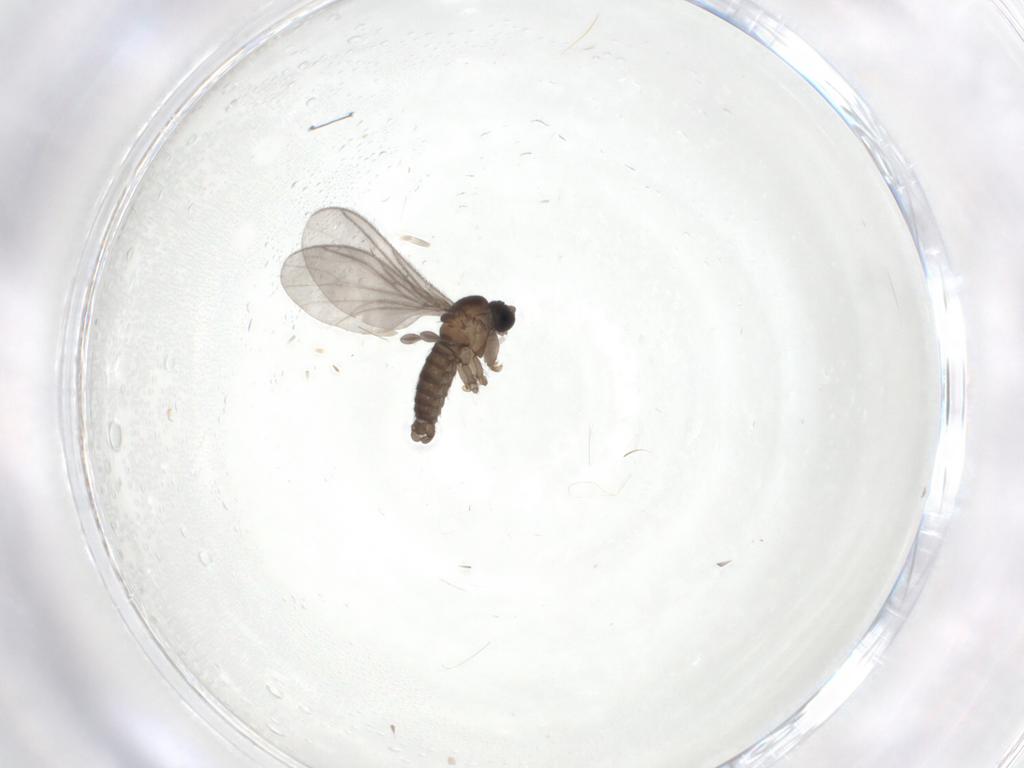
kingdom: Animalia
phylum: Arthropoda
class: Insecta
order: Diptera
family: Sciaridae
